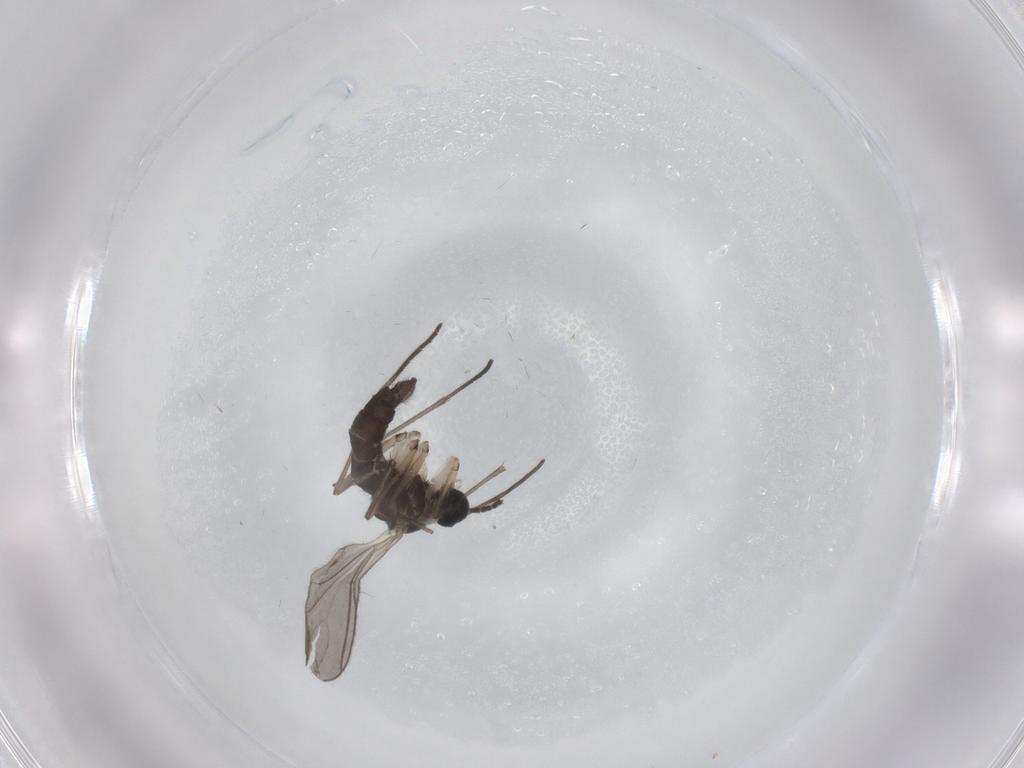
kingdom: Animalia
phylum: Arthropoda
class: Insecta
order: Diptera
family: Sciaridae
